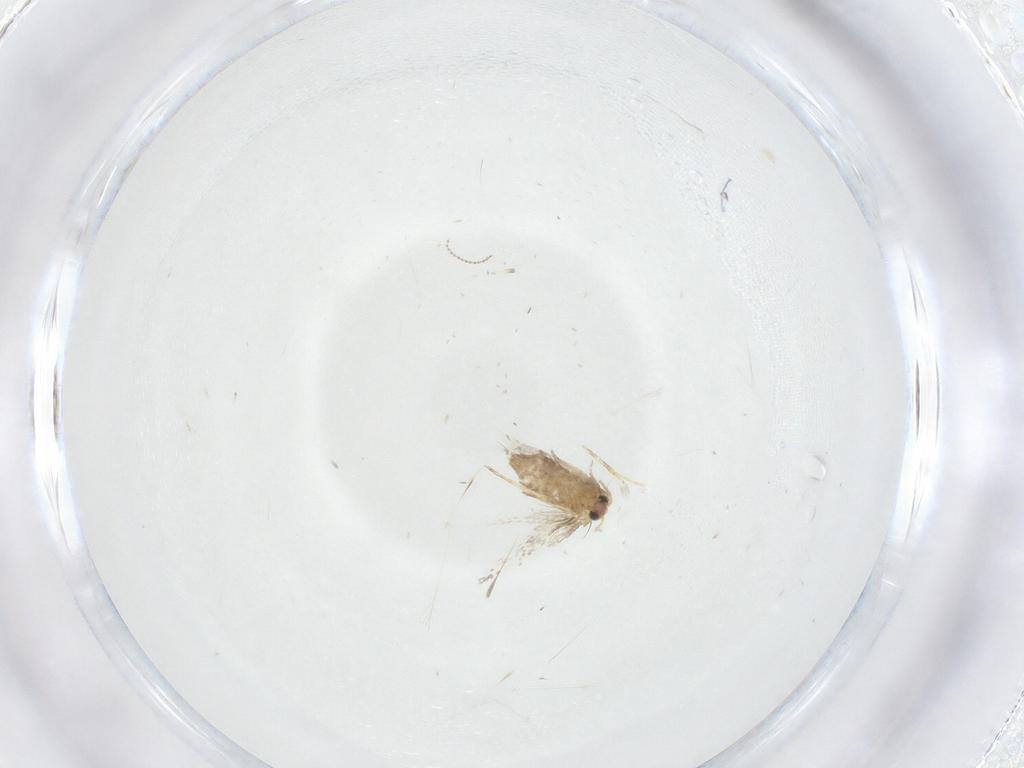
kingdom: Animalia
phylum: Arthropoda
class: Insecta
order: Lepidoptera
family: Nepticulidae
